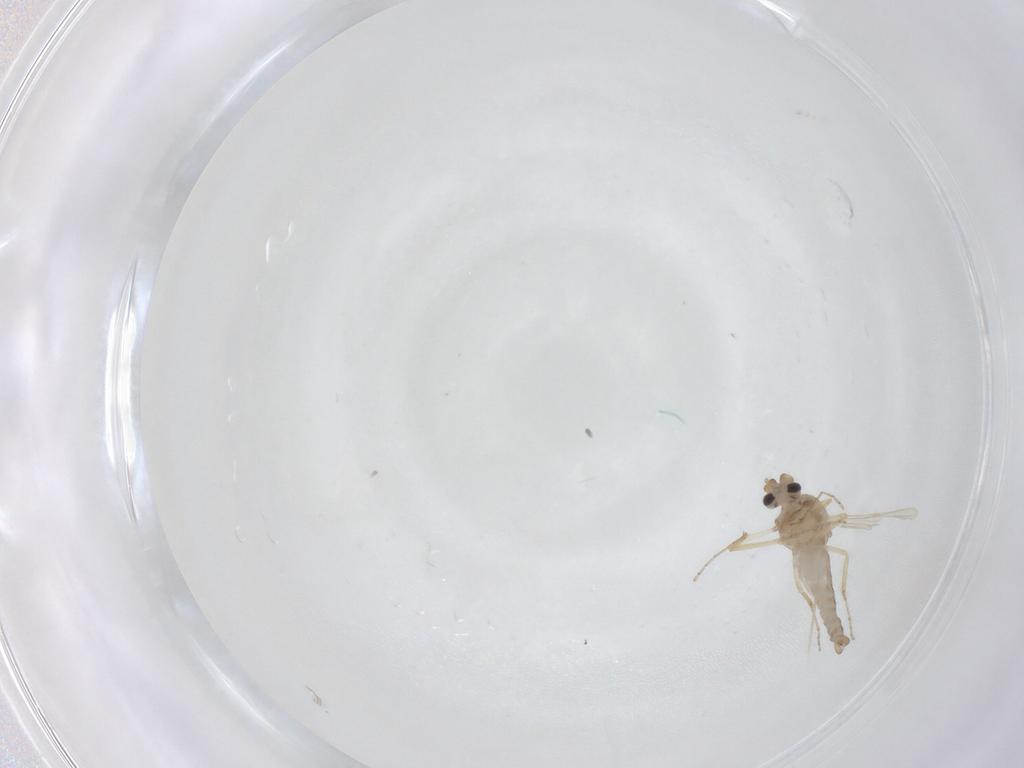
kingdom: Animalia
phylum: Arthropoda
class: Insecta
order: Diptera
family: Ceratopogonidae
